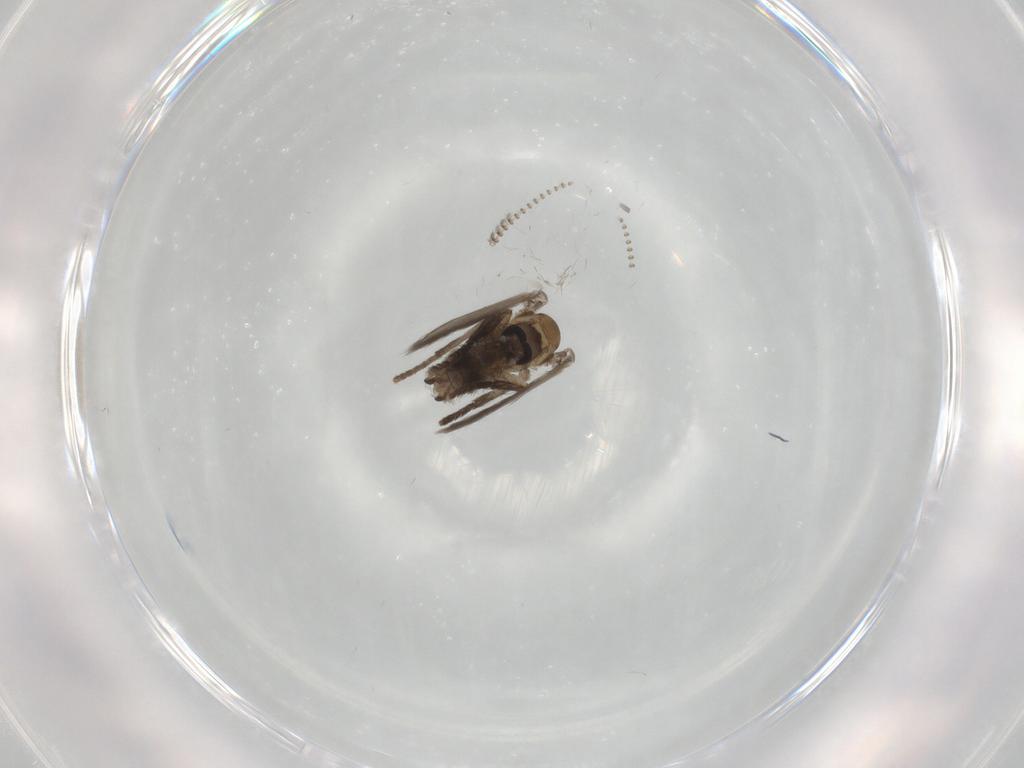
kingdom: Animalia
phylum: Arthropoda
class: Insecta
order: Diptera
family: Psychodidae
